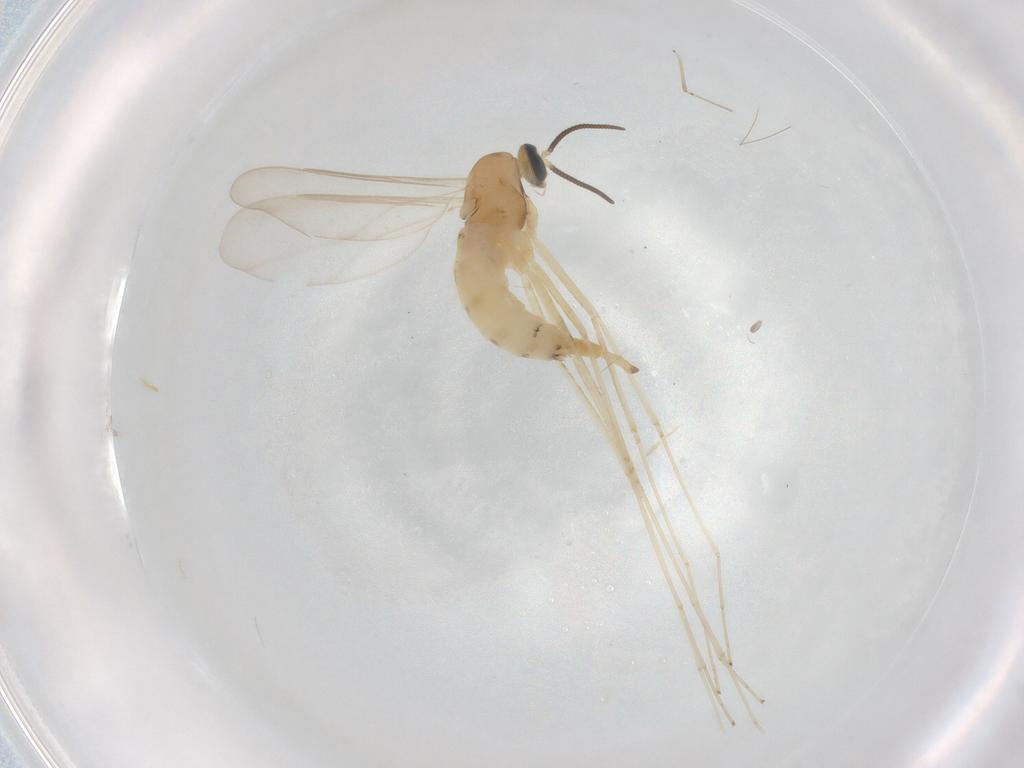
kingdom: Animalia
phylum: Arthropoda
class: Insecta
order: Diptera
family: Cecidomyiidae
